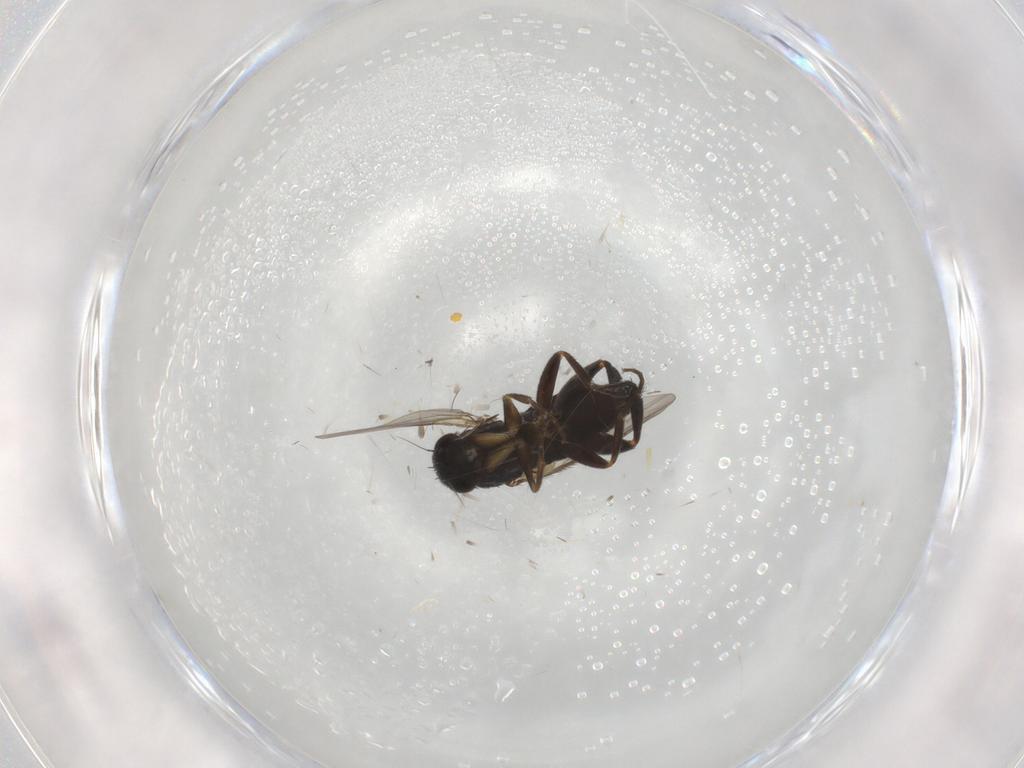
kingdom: Animalia
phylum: Arthropoda
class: Insecta
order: Diptera
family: Phoridae
